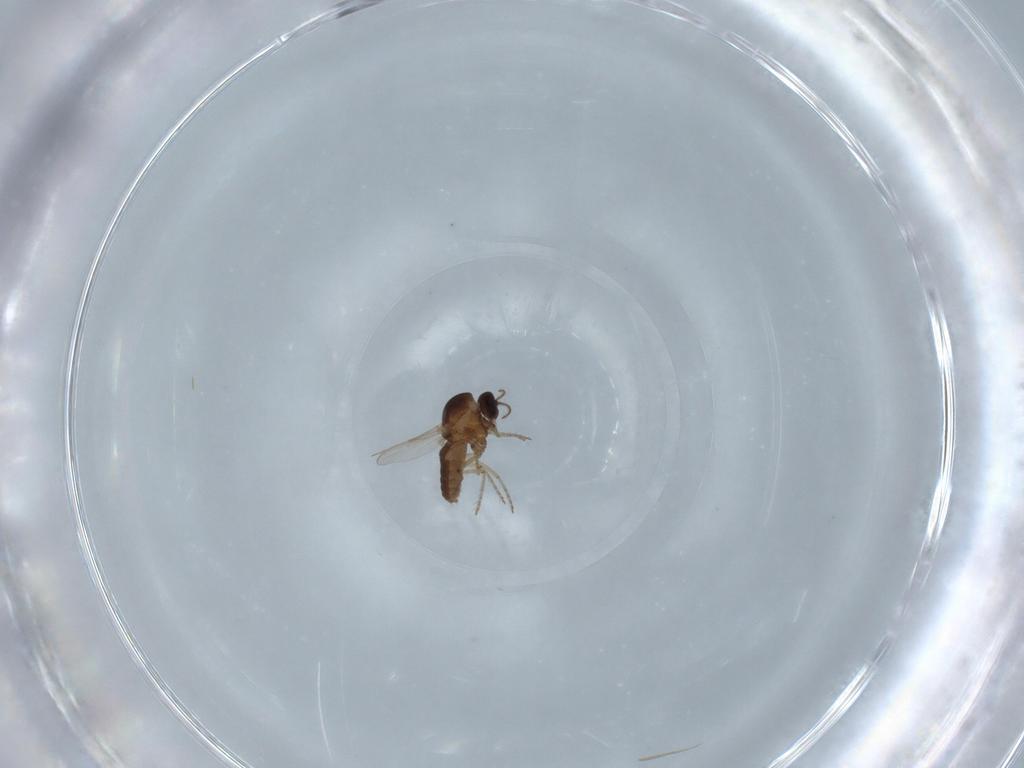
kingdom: Animalia
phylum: Arthropoda
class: Insecta
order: Diptera
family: Ceratopogonidae
